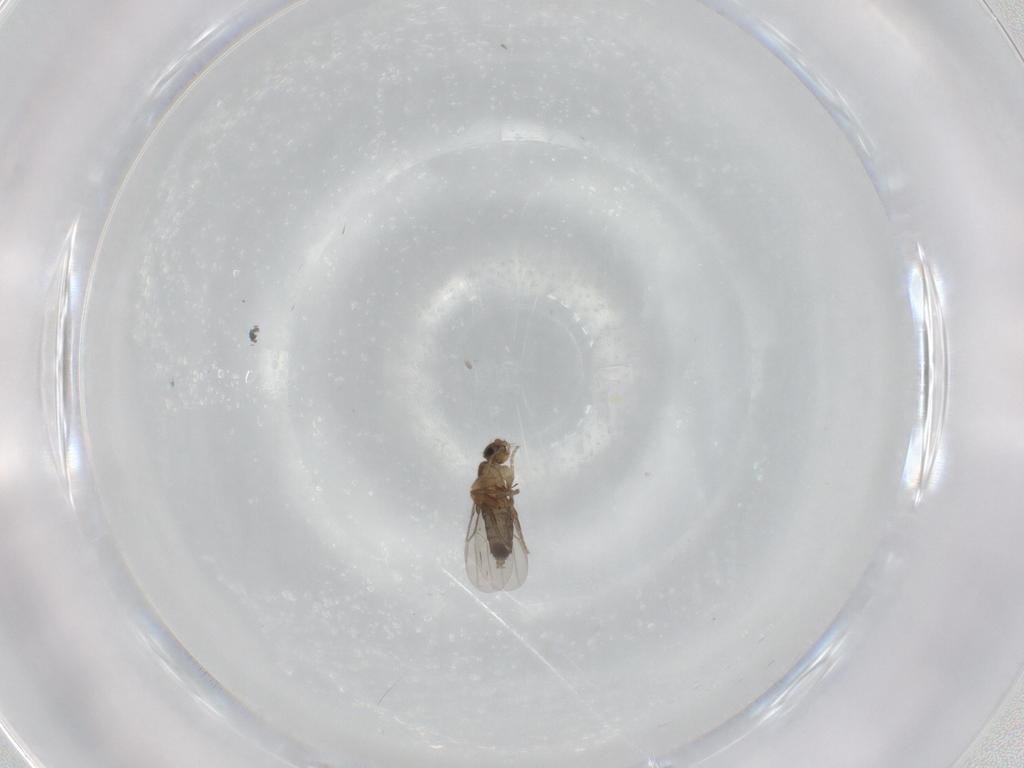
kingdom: Animalia
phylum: Arthropoda
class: Insecta
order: Diptera
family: Phoridae
